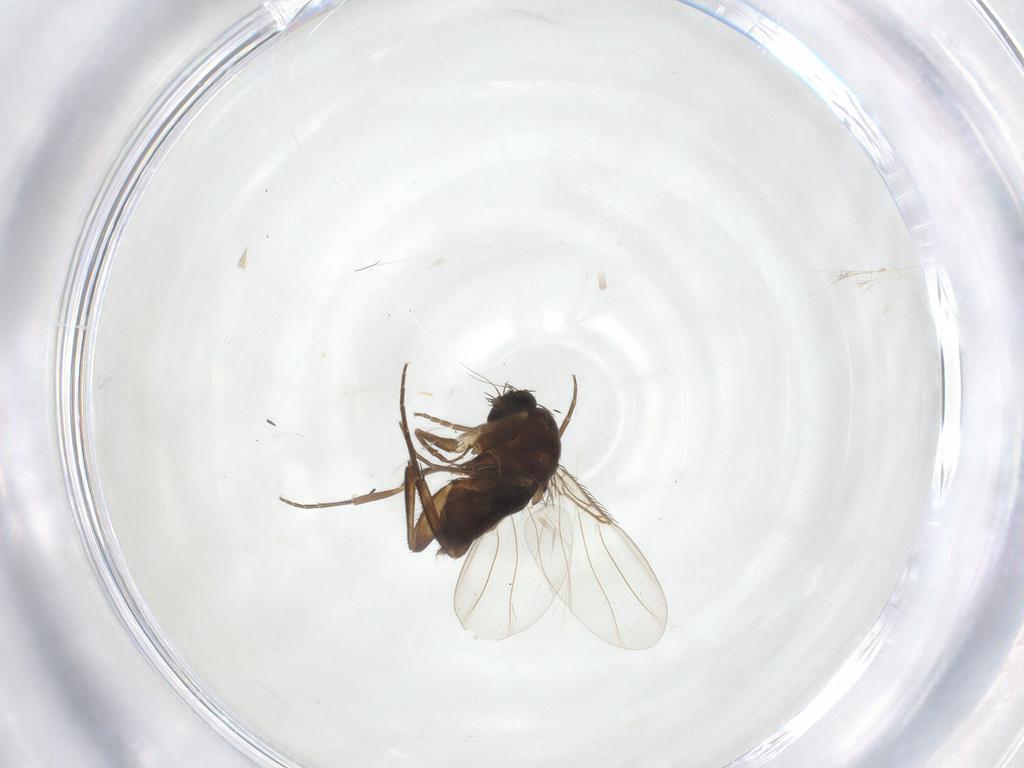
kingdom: Animalia
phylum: Arthropoda
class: Insecta
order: Diptera
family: Phoridae
